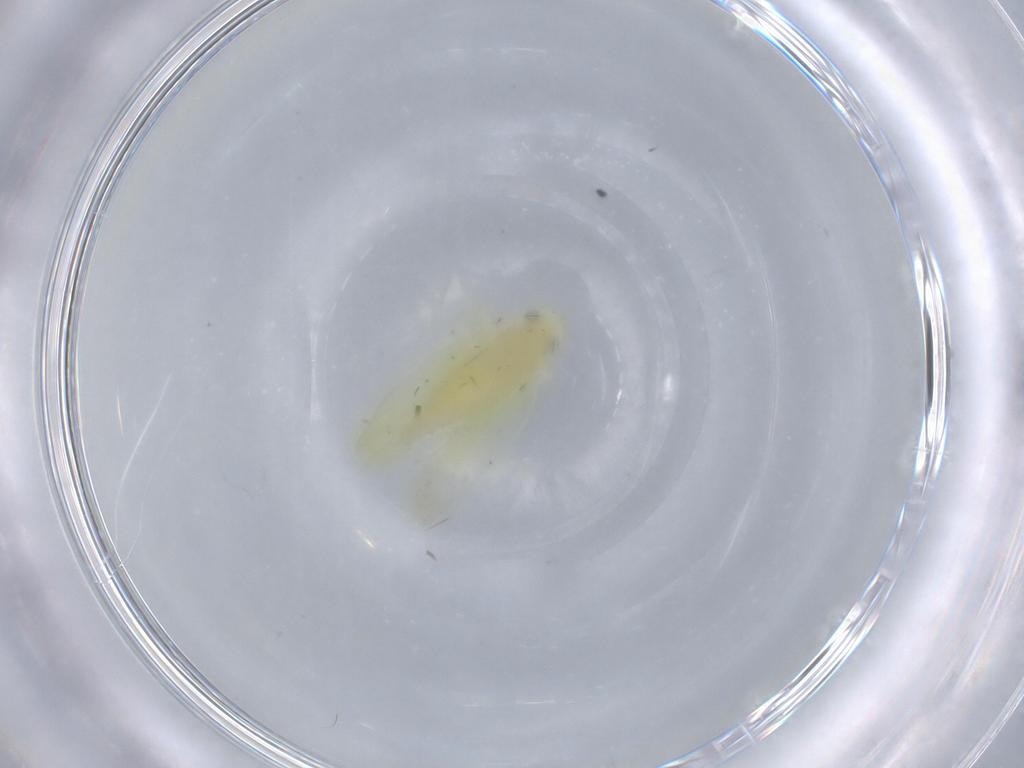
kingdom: Animalia
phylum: Arthropoda
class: Insecta
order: Hemiptera
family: Cicadellidae
